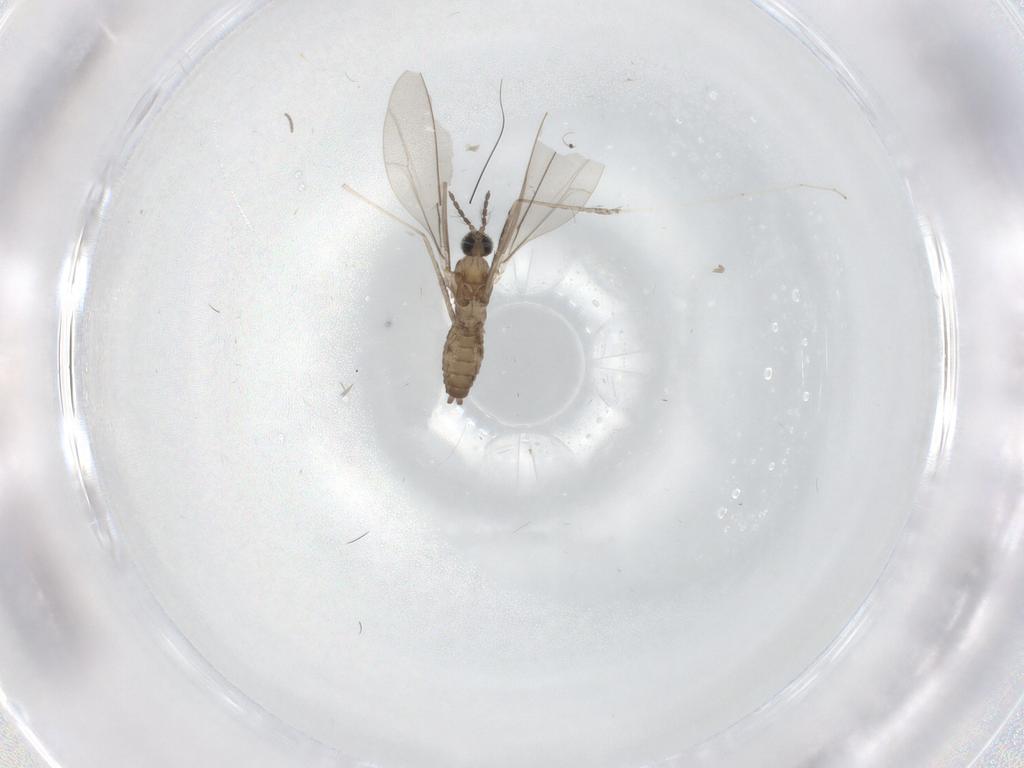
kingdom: Animalia
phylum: Arthropoda
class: Insecta
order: Diptera
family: Cecidomyiidae
